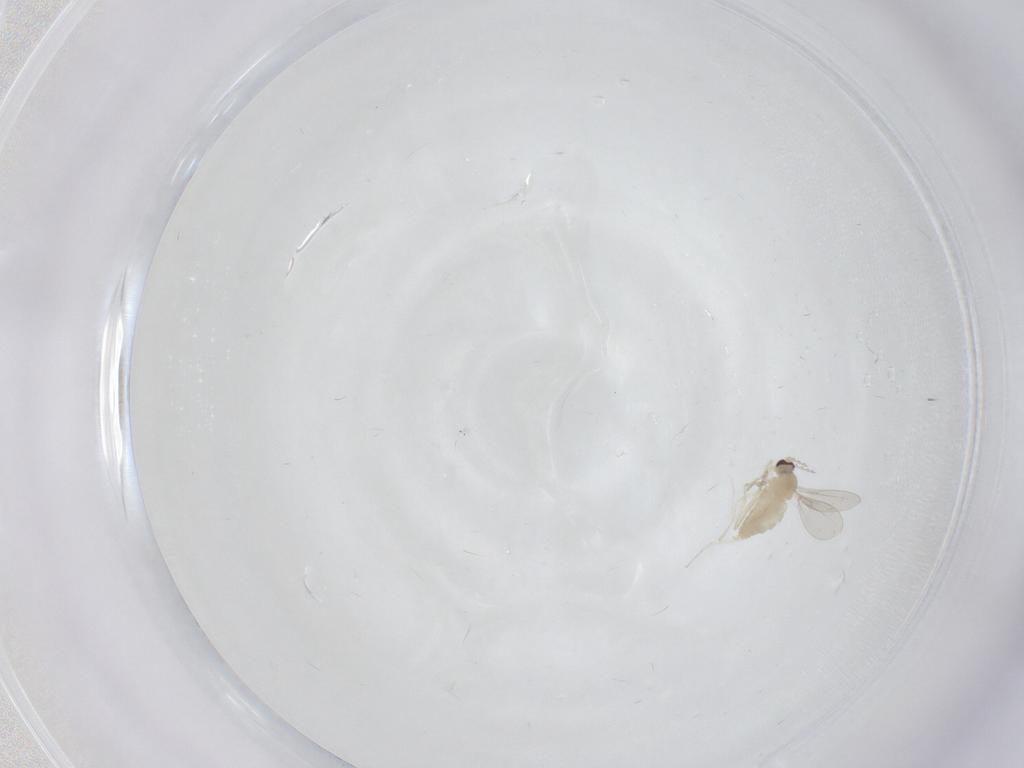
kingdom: Animalia
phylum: Arthropoda
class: Insecta
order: Diptera
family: Cecidomyiidae
